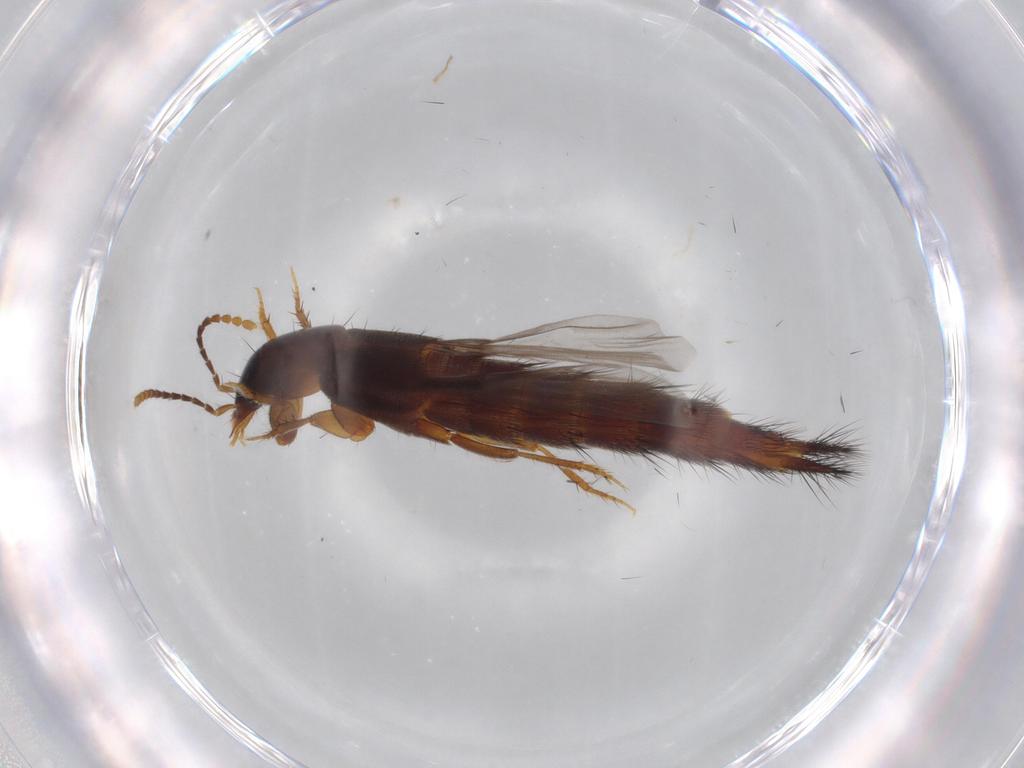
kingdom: Animalia
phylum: Arthropoda
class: Insecta
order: Coleoptera
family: Staphylinidae
